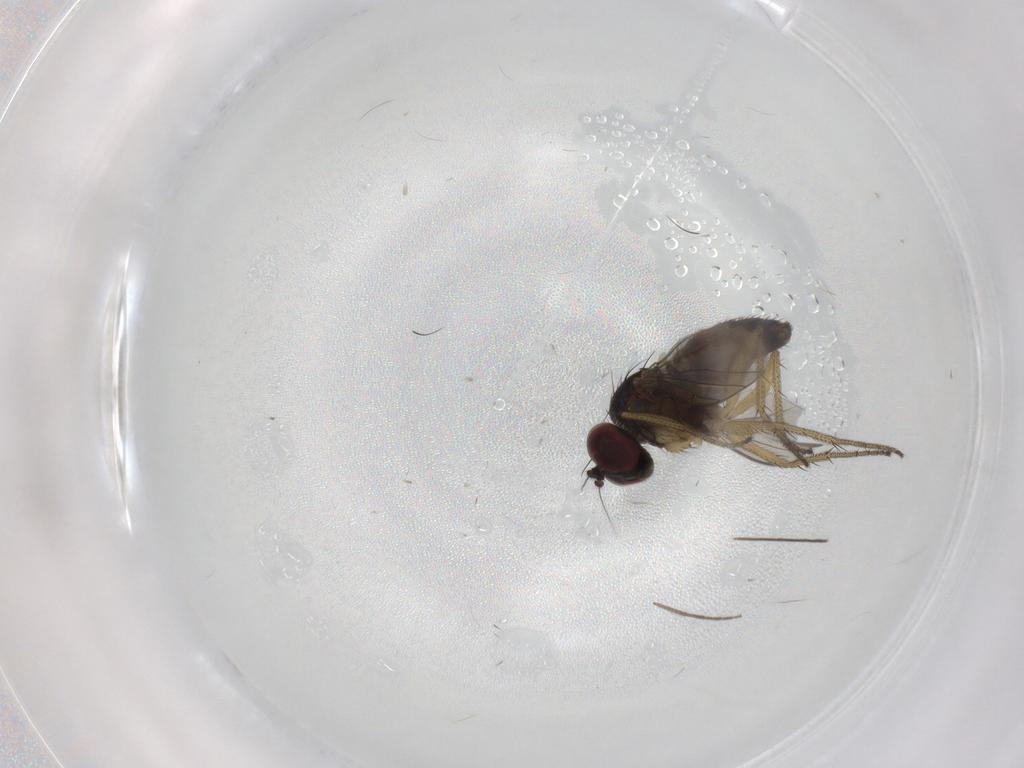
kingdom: Animalia
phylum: Arthropoda
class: Insecta
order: Diptera
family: Dolichopodidae
